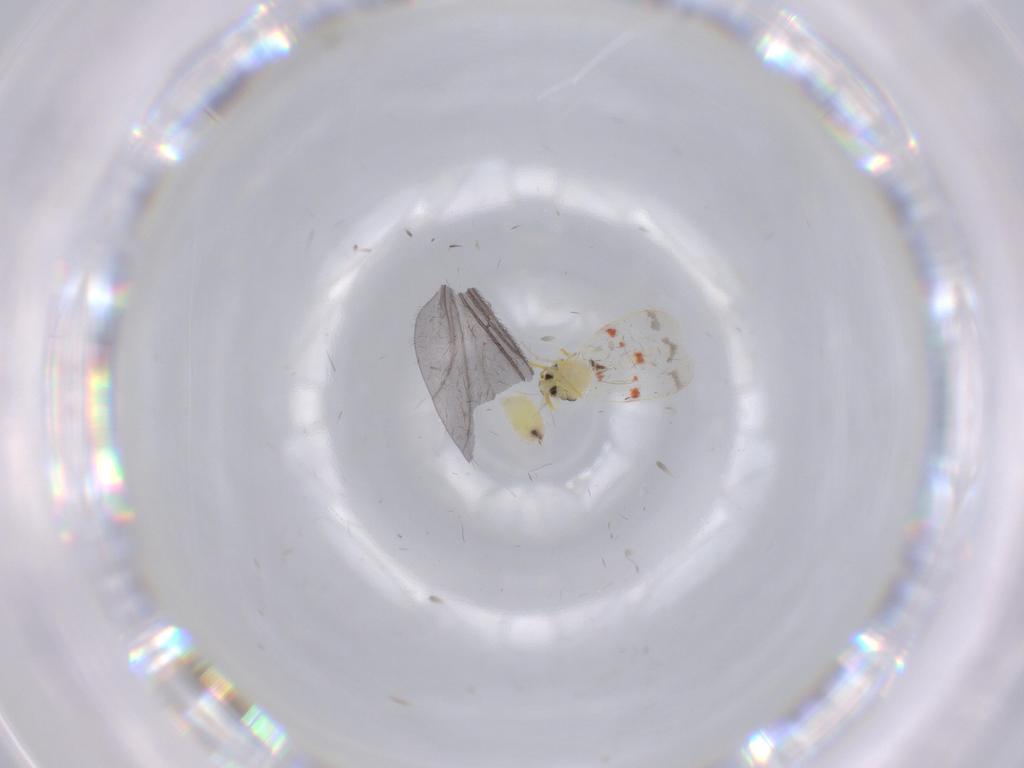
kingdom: Animalia
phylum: Arthropoda
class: Insecta
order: Hemiptera
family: Aleyrodidae
